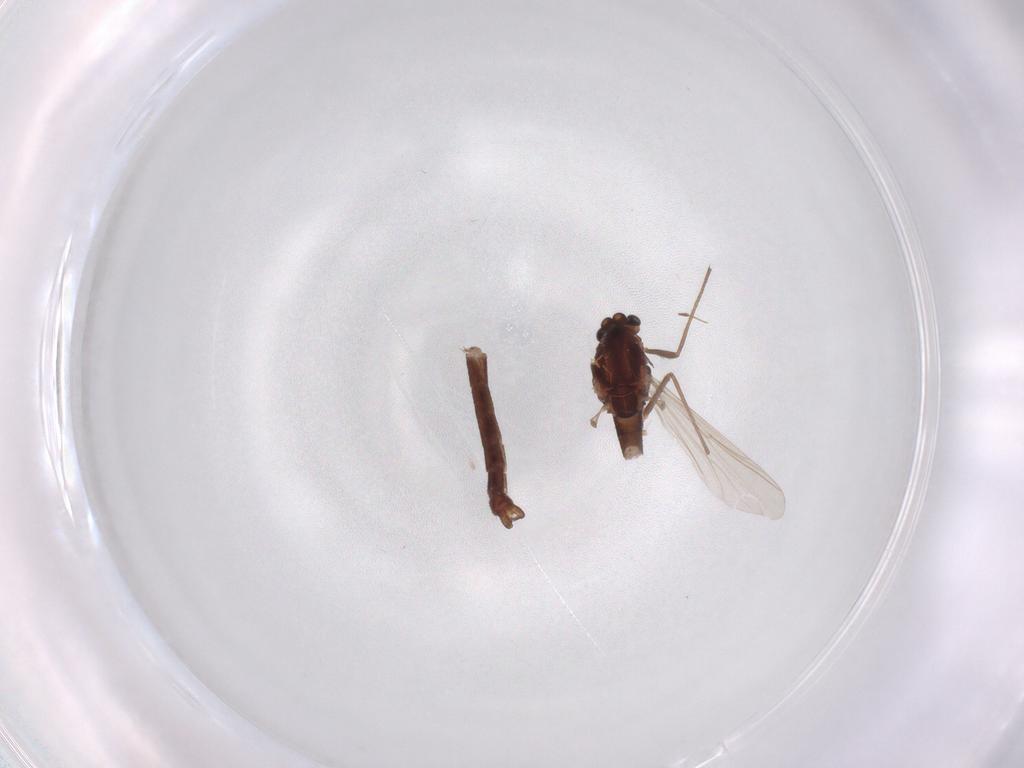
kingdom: Animalia
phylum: Arthropoda
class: Insecta
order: Diptera
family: Chironomidae
